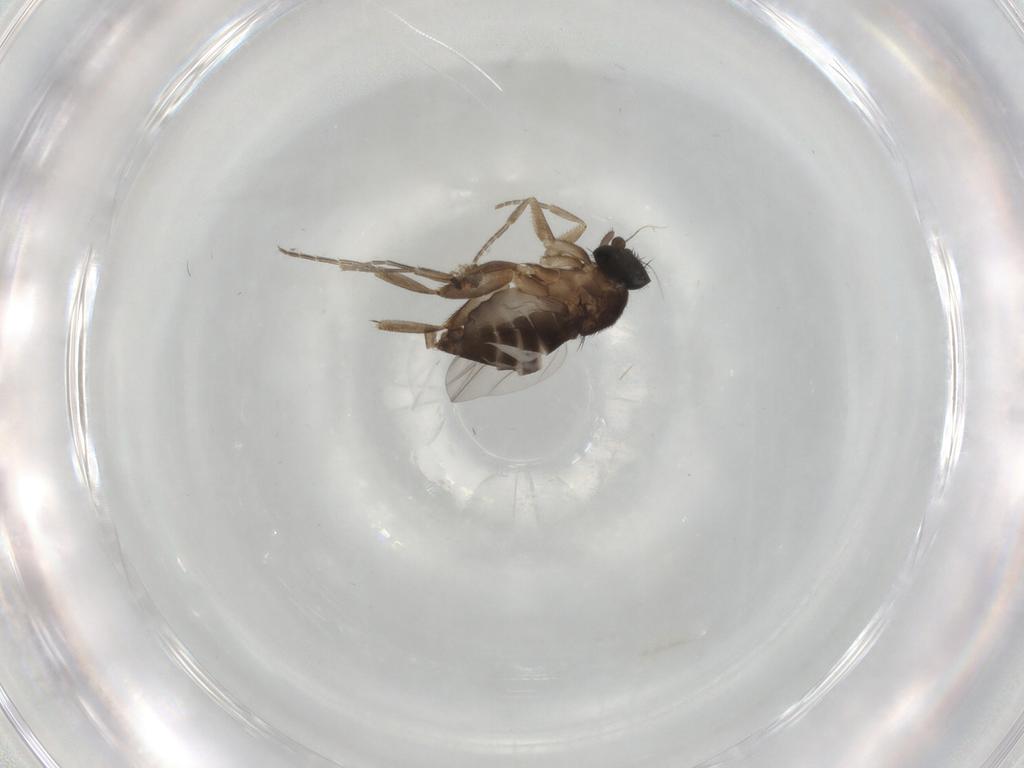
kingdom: Animalia
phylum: Arthropoda
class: Insecta
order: Diptera
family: Phoridae
